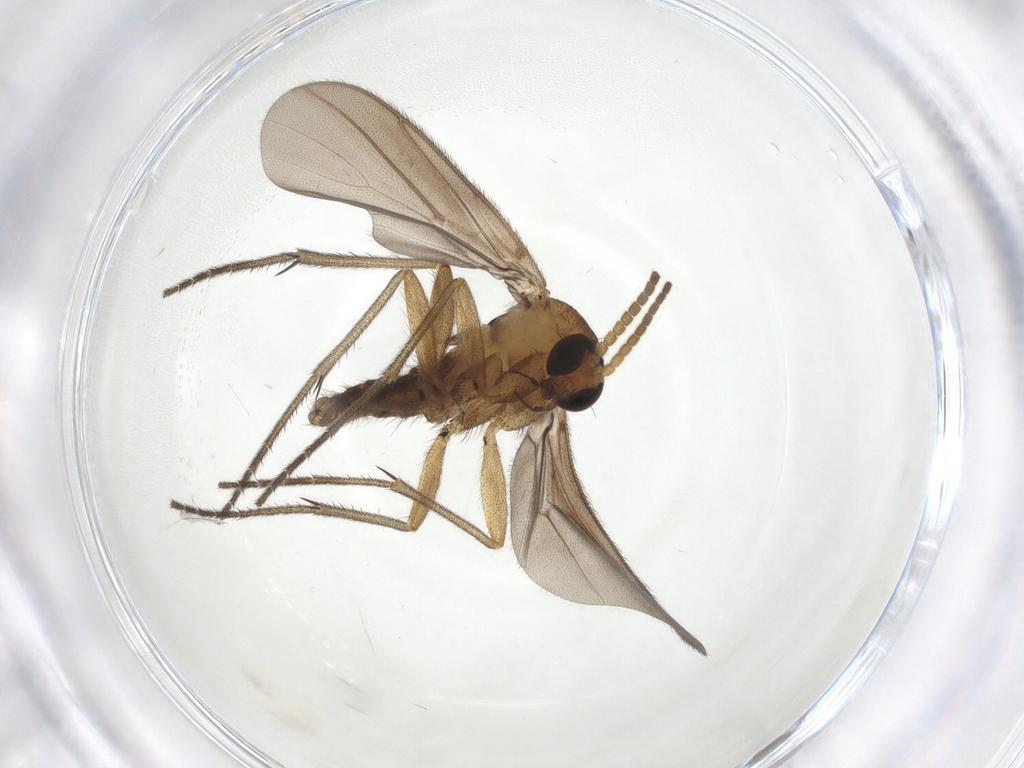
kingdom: Animalia
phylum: Arthropoda
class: Insecta
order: Diptera
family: Diadocidiidae
